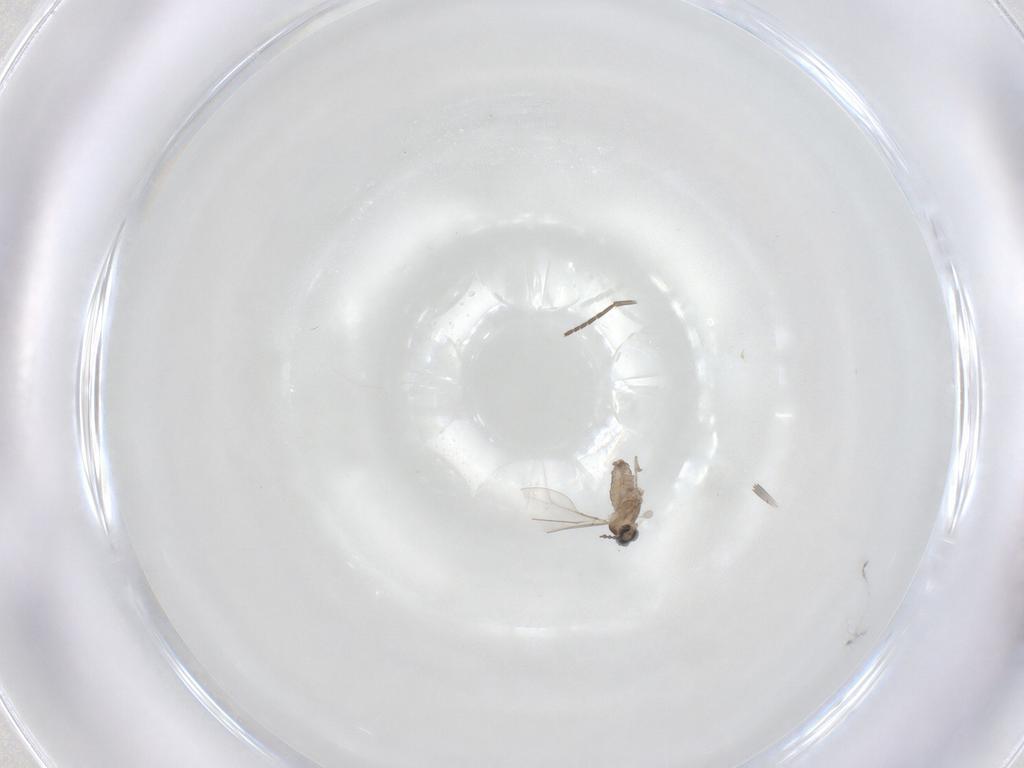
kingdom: Animalia
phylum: Arthropoda
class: Insecta
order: Diptera
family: Cecidomyiidae
